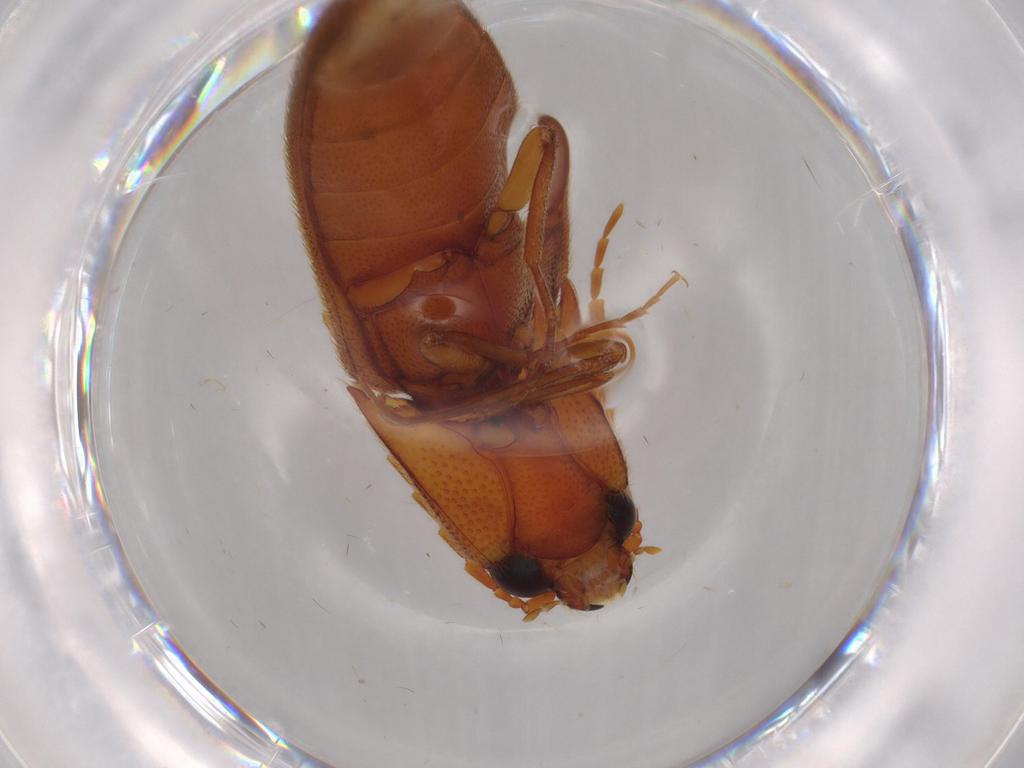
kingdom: Animalia
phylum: Arthropoda
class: Insecta
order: Coleoptera
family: Elateridae
